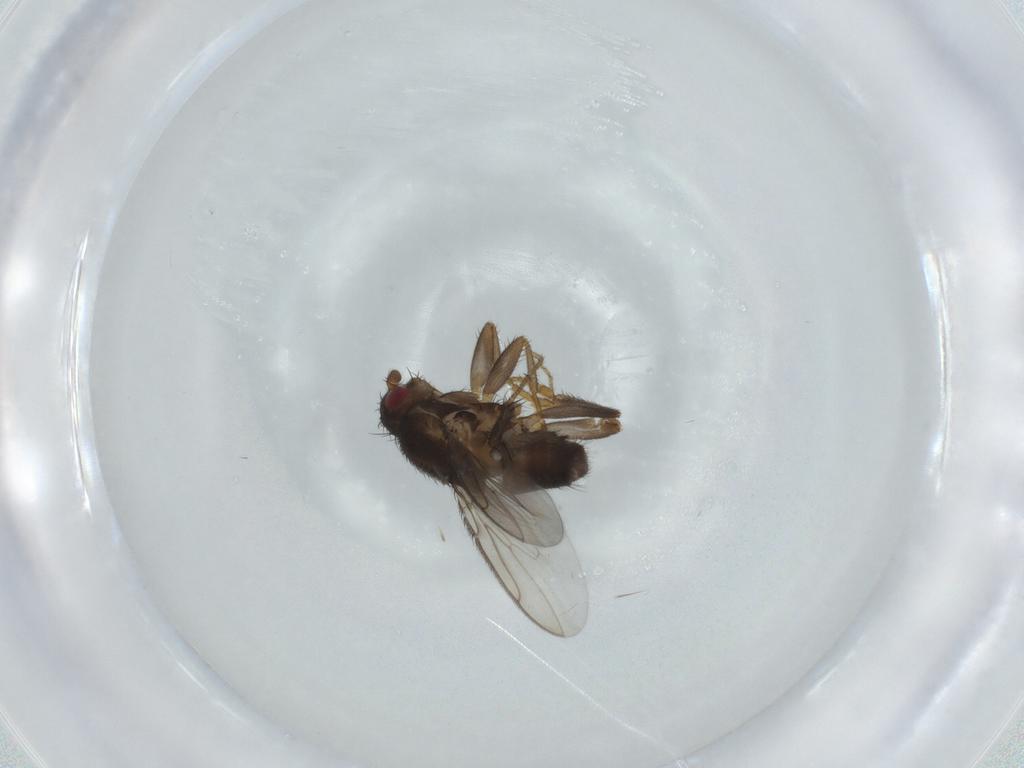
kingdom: Animalia
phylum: Arthropoda
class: Insecta
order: Diptera
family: Sphaeroceridae
